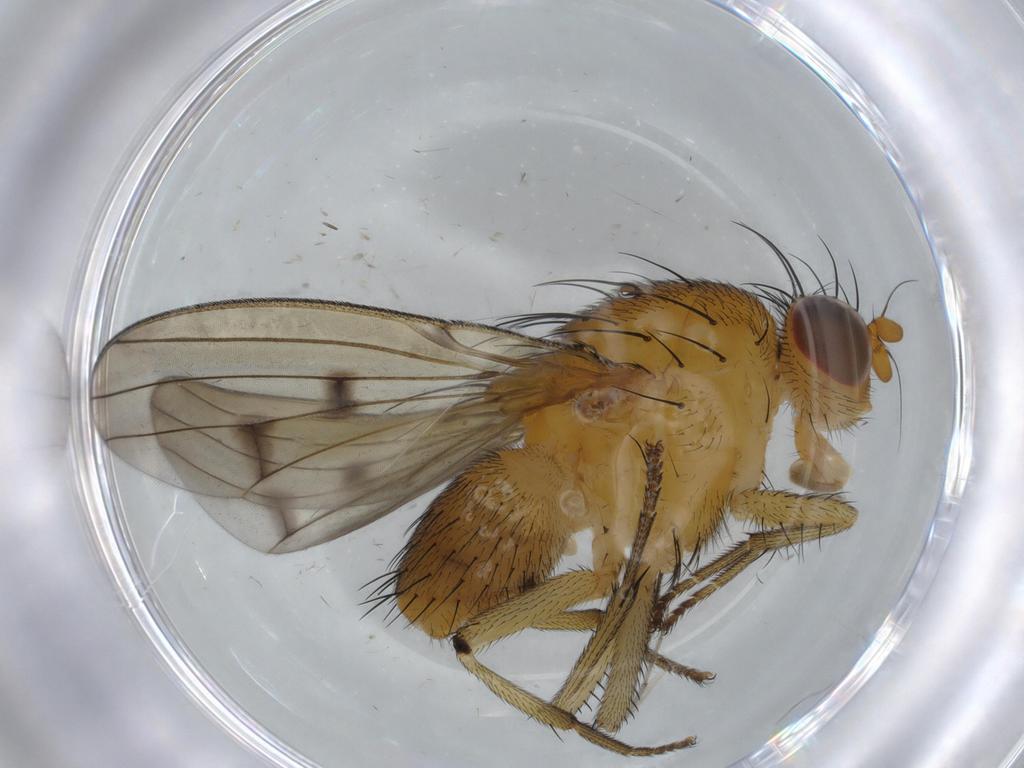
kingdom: Animalia
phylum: Arthropoda
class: Insecta
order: Diptera
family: Chironomidae
